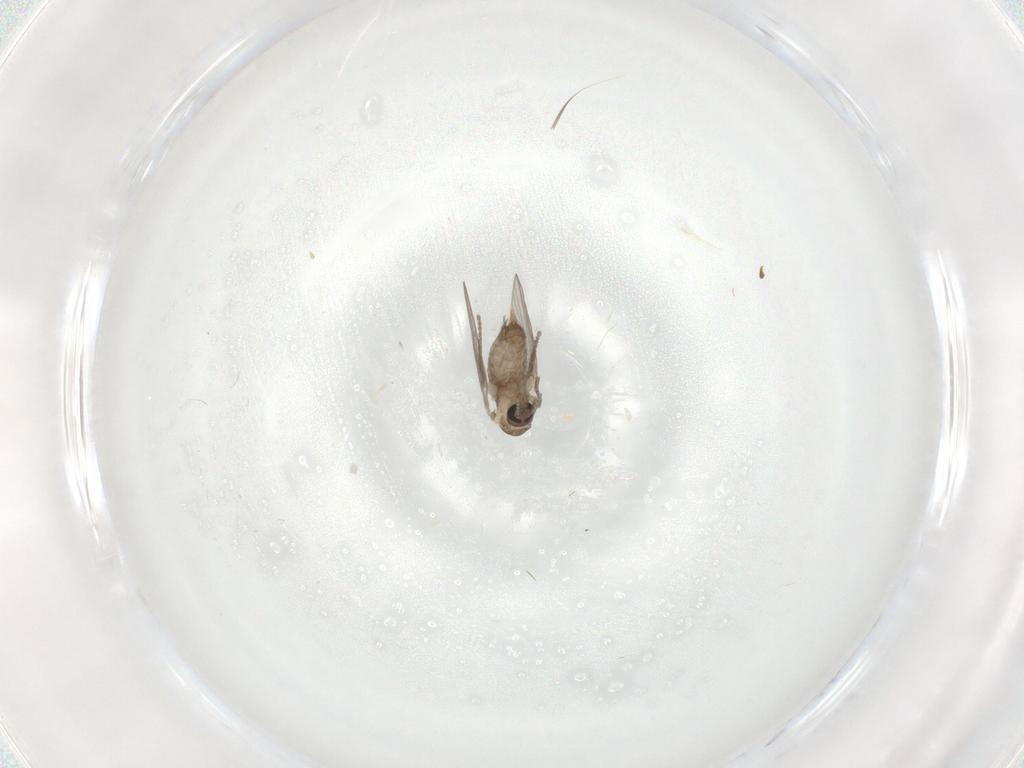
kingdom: Animalia
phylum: Arthropoda
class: Insecta
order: Diptera
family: Psychodidae
